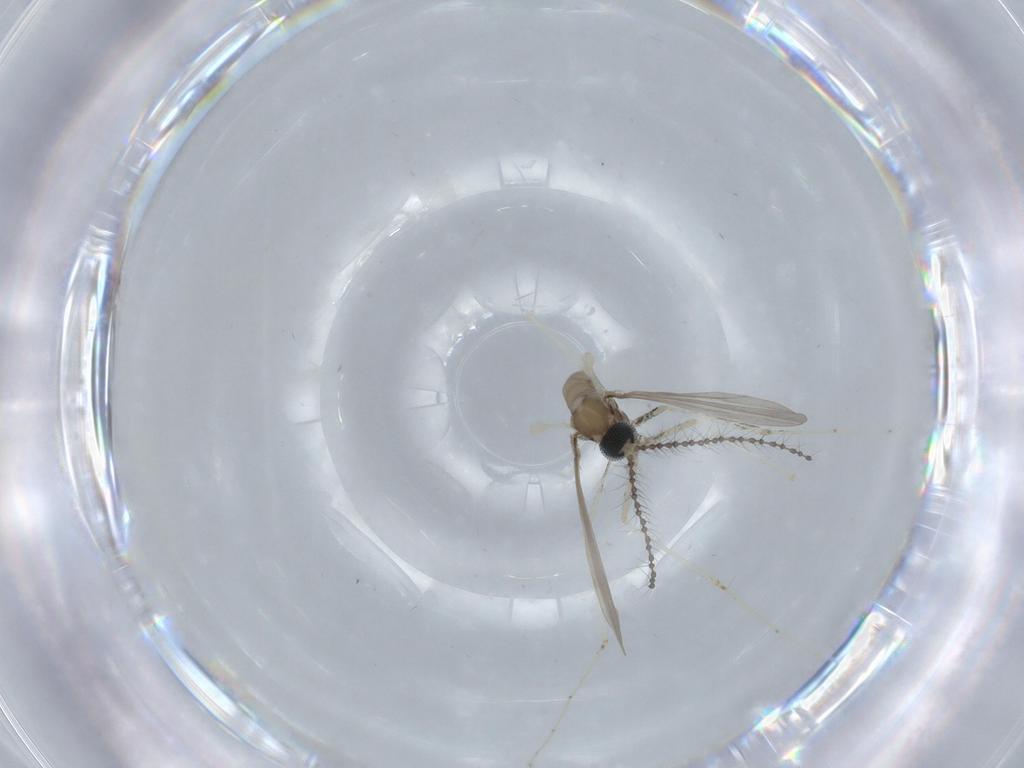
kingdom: Animalia
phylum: Arthropoda
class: Insecta
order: Diptera
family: Cecidomyiidae
